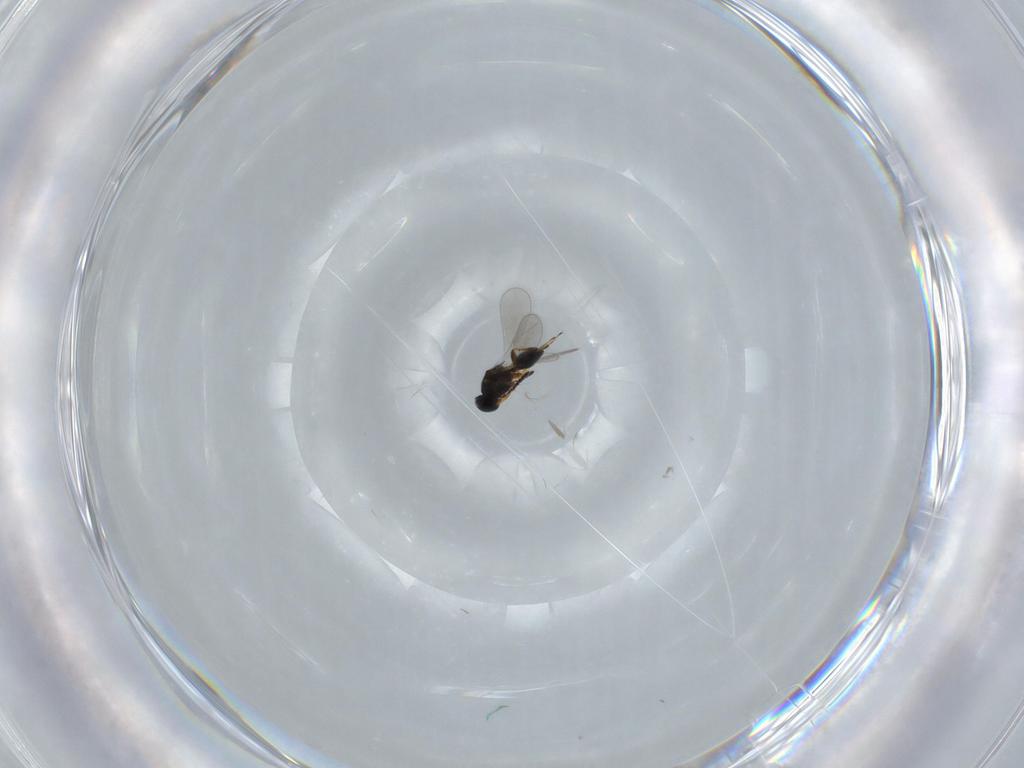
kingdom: Animalia
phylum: Arthropoda
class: Insecta
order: Hymenoptera
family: Platygastridae
